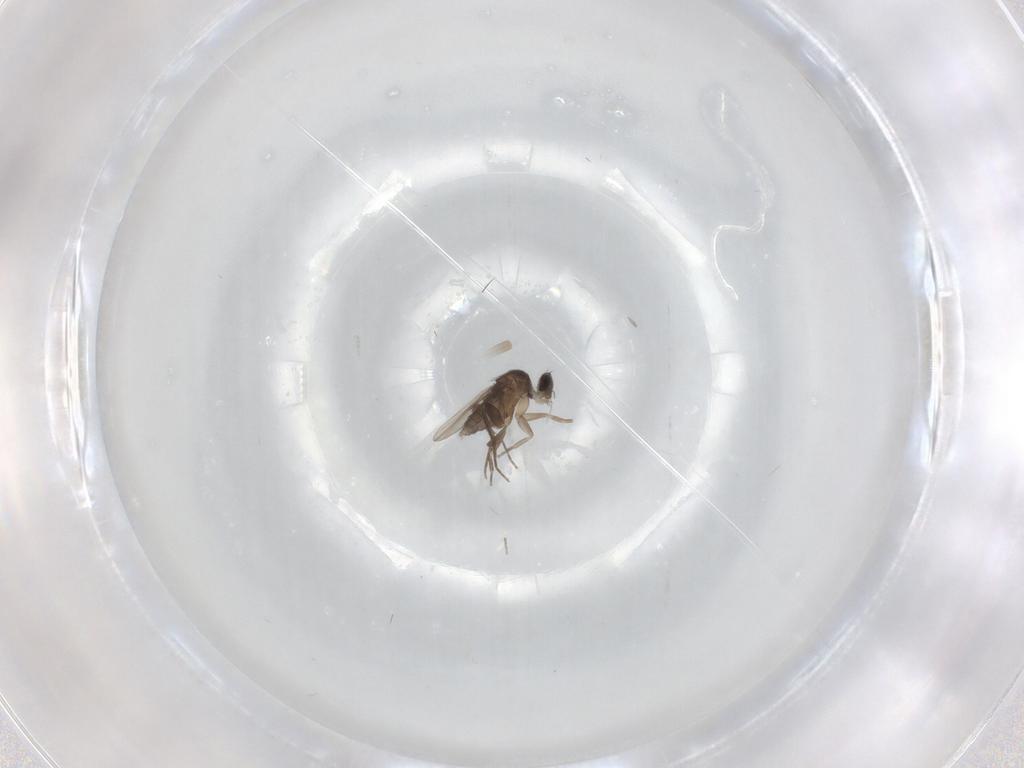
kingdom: Animalia
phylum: Arthropoda
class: Insecta
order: Diptera
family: Phoridae
